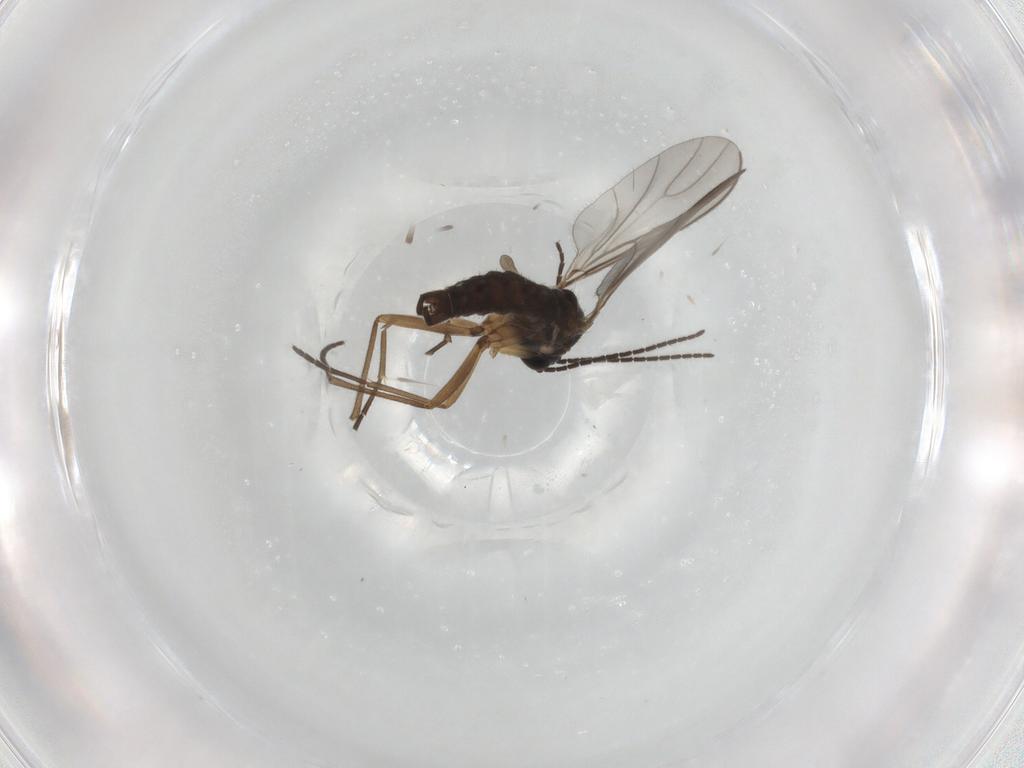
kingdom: Animalia
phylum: Arthropoda
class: Insecta
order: Diptera
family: Sciaridae
